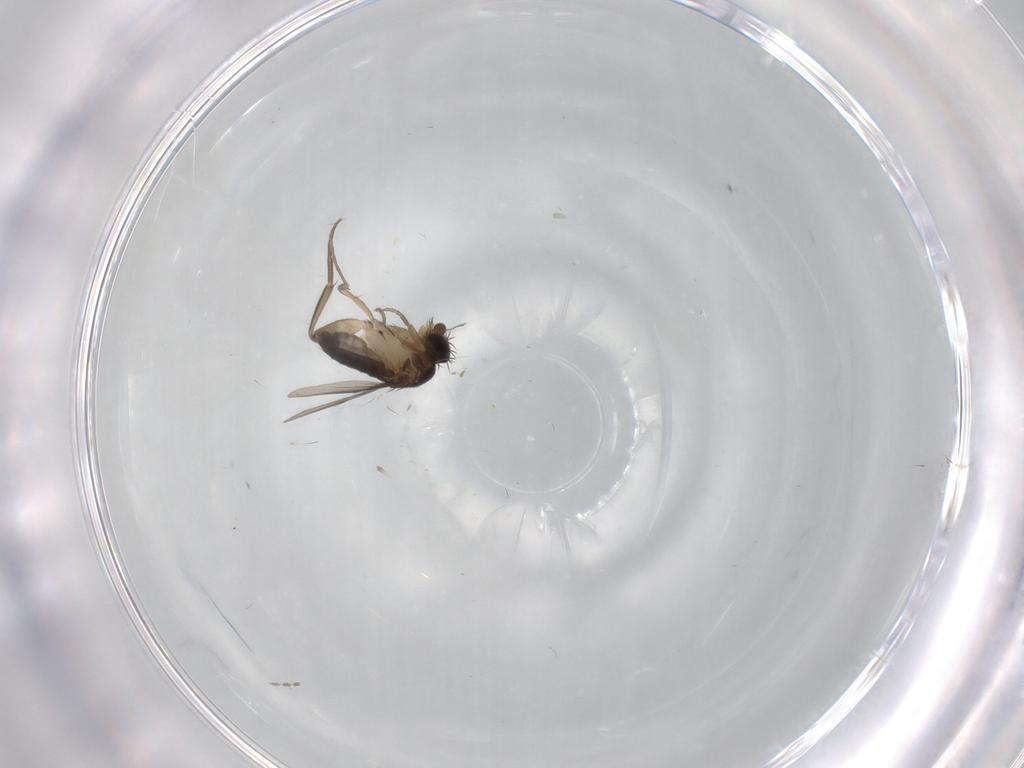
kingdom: Animalia
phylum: Arthropoda
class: Insecta
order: Diptera
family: Phoridae
